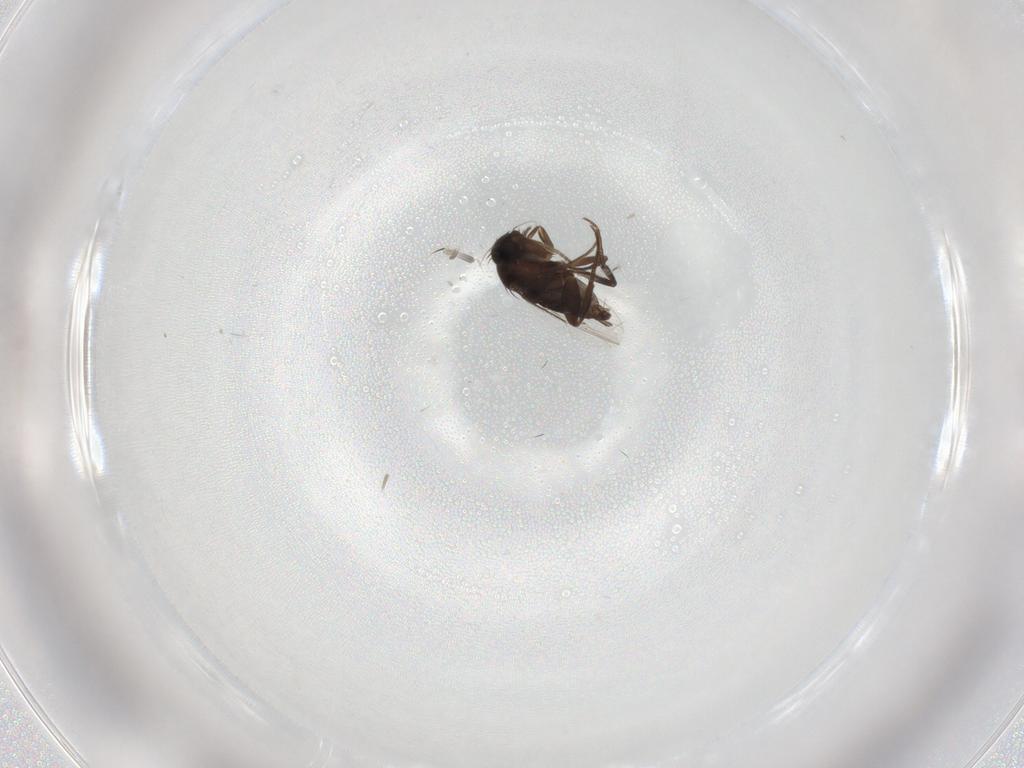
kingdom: Animalia
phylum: Arthropoda
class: Insecta
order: Diptera
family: Phoridae
